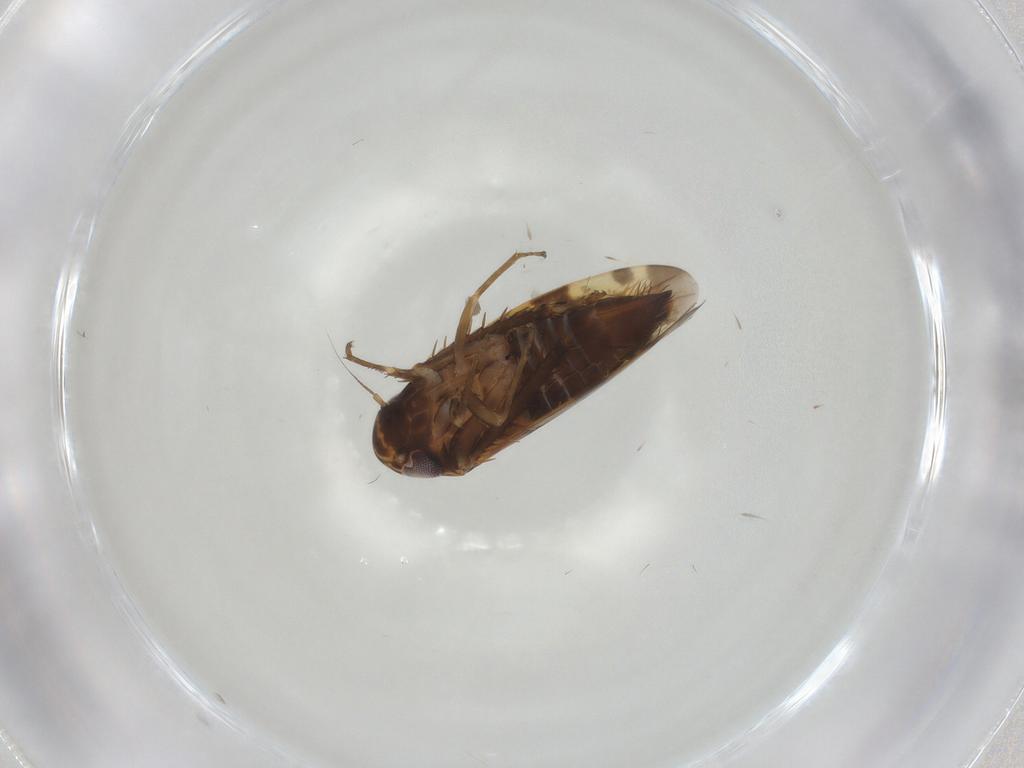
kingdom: Animalia
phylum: Arthropoda
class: Insecta
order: Hemiptera
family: Cicadellidae
